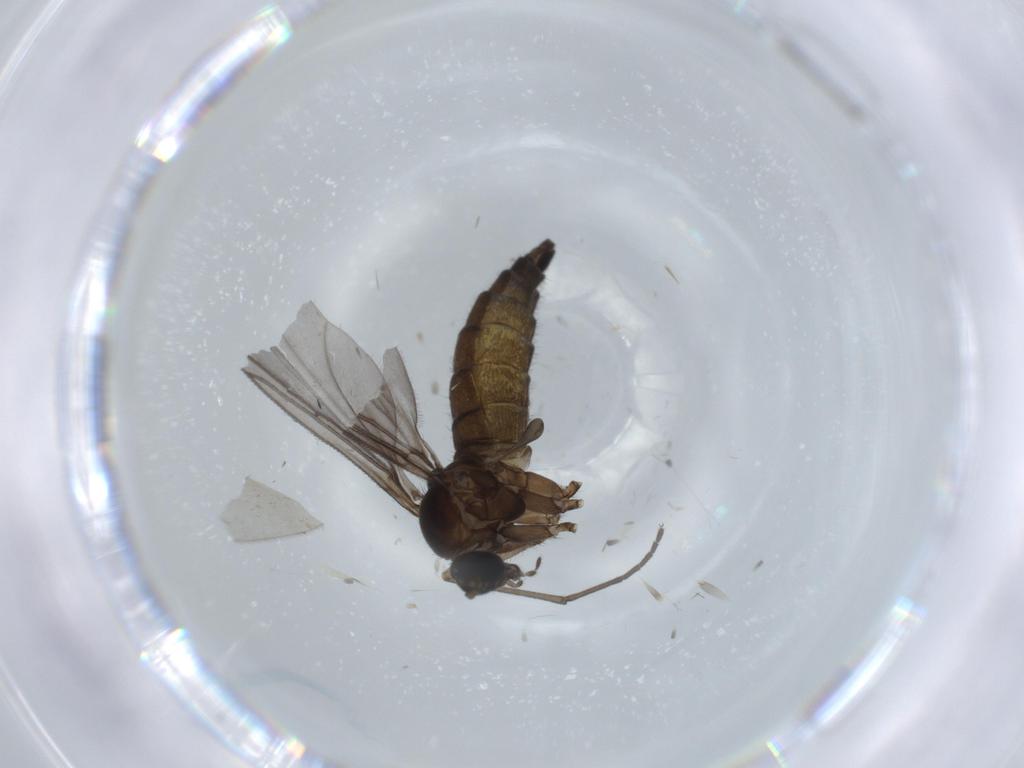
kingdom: Animalia
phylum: Arthropoda
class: Insecta
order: Diptera
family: Sciaridae
